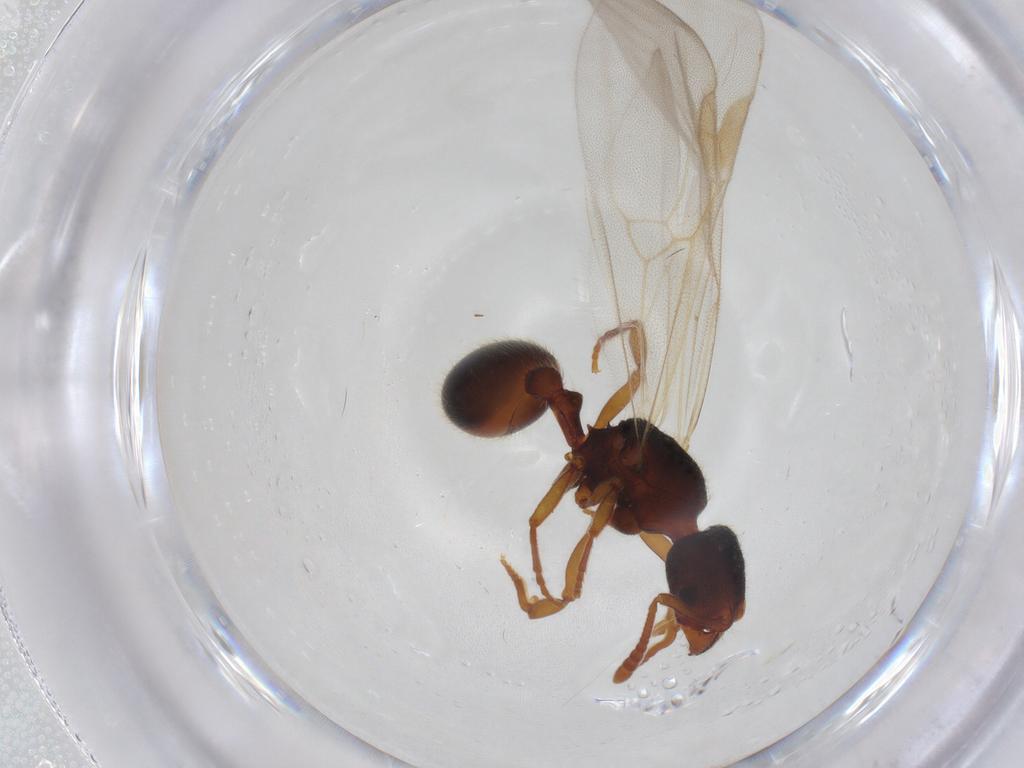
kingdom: Animalia
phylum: Arthropoda
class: Insecta
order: Hymenoptera
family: Formicidae
